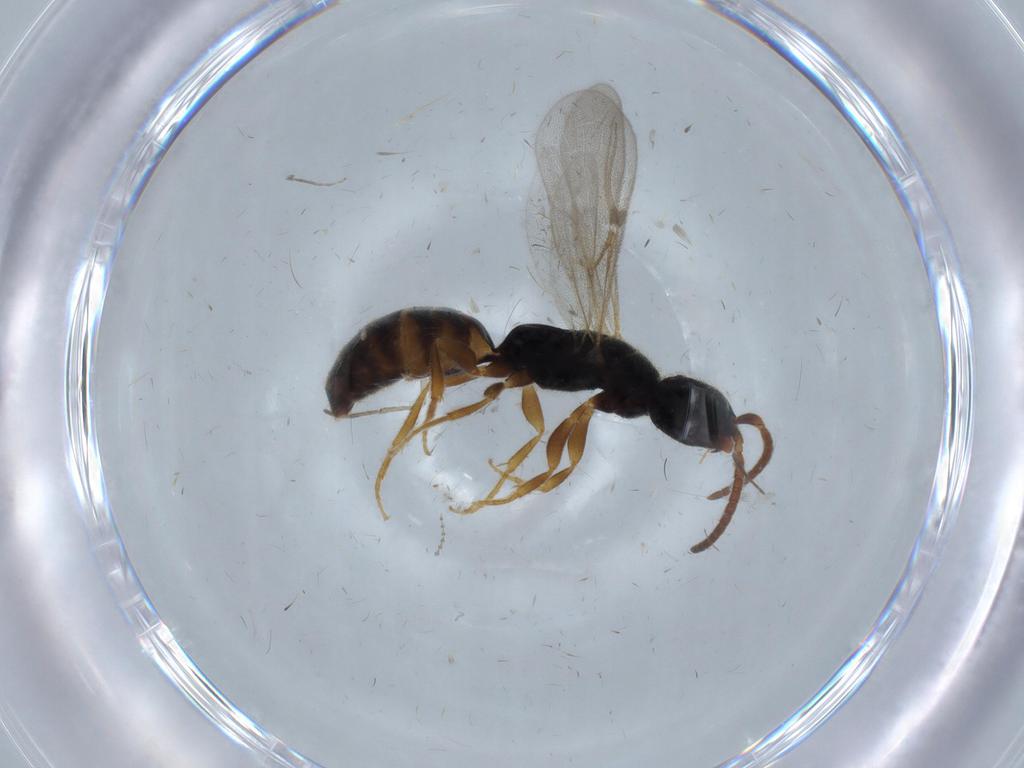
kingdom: Animalia
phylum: Arthropoda
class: Insecta
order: Hymenoptera
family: Bethylidae
